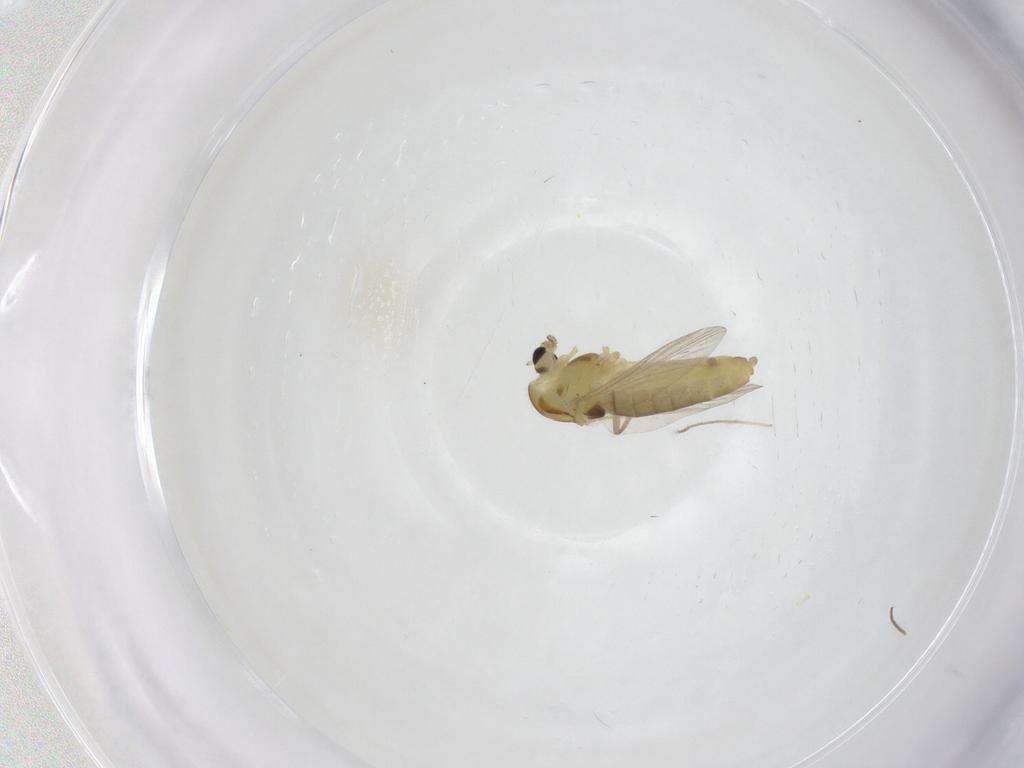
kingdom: Animalia
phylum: Arthropoda
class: Insecta
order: Diptera
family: Chironomidae
